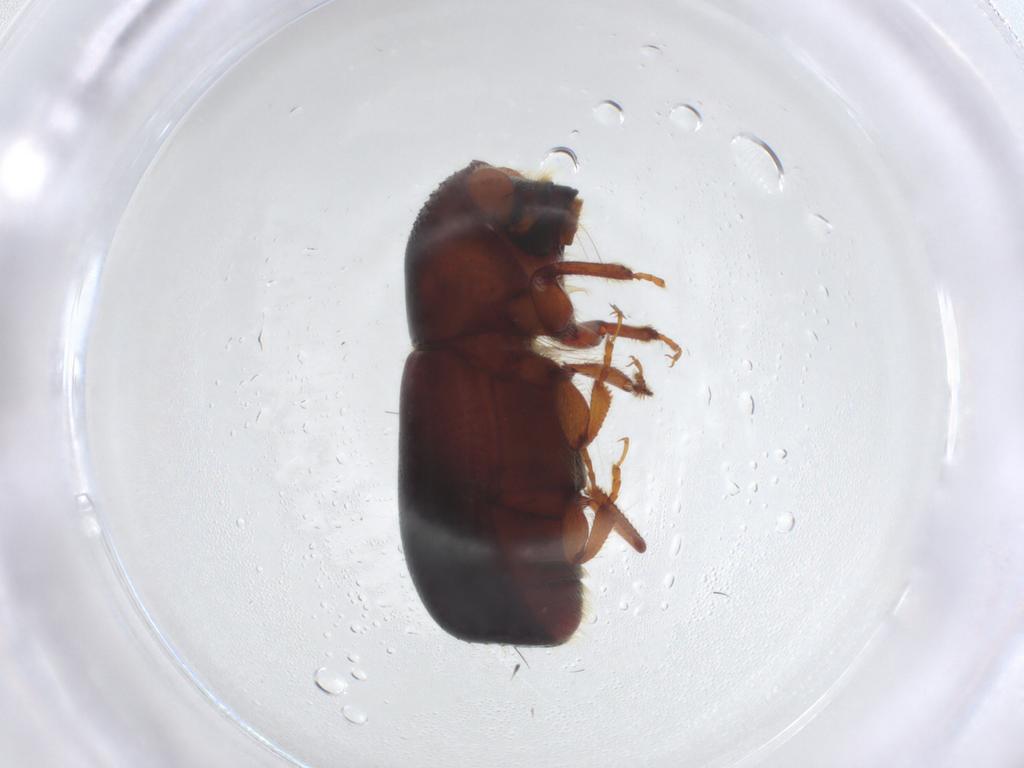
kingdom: Animalia
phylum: Arthropoda
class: Insecta
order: Coleoptera
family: Curculionidae
